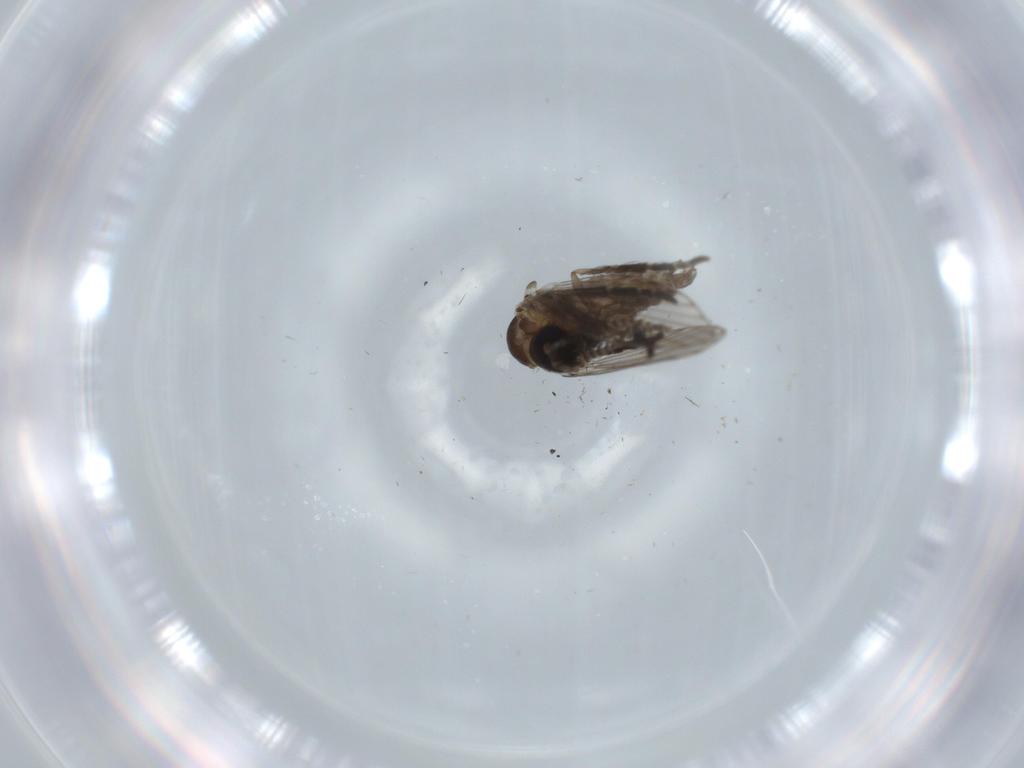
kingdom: Animalia
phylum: Arthropoda
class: Insecta
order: Diptera
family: Psychodidae
